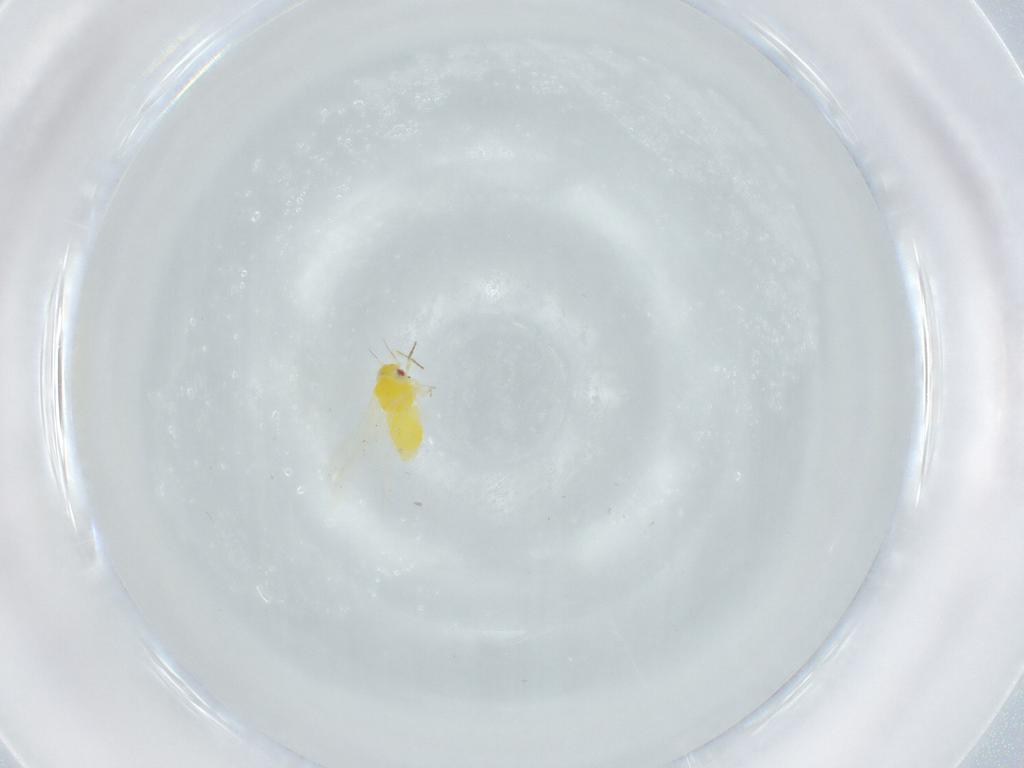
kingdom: Animalia
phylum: Arthropoda
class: Insecta
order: Hemiptera
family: Aleyrodidae
